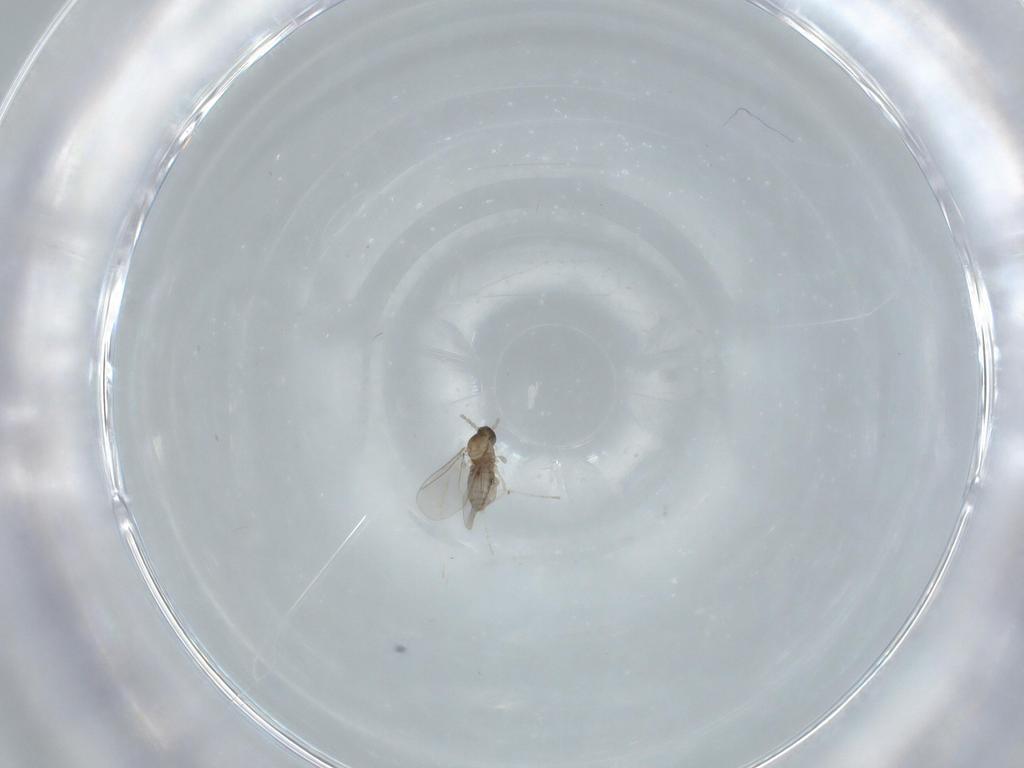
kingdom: Animalia
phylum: Arthropoda
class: Insecta
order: Diptera
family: Cecidomyiidae
